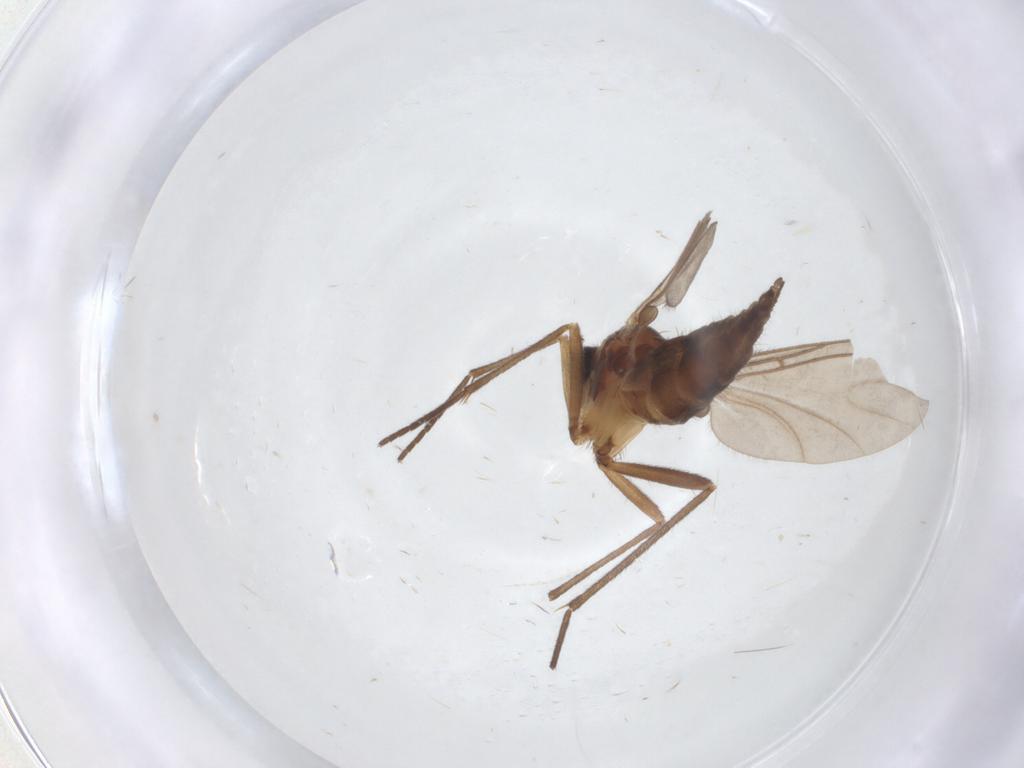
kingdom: Animalia
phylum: Arthropoda
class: Insecta
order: Diptera
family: Sciaridae
